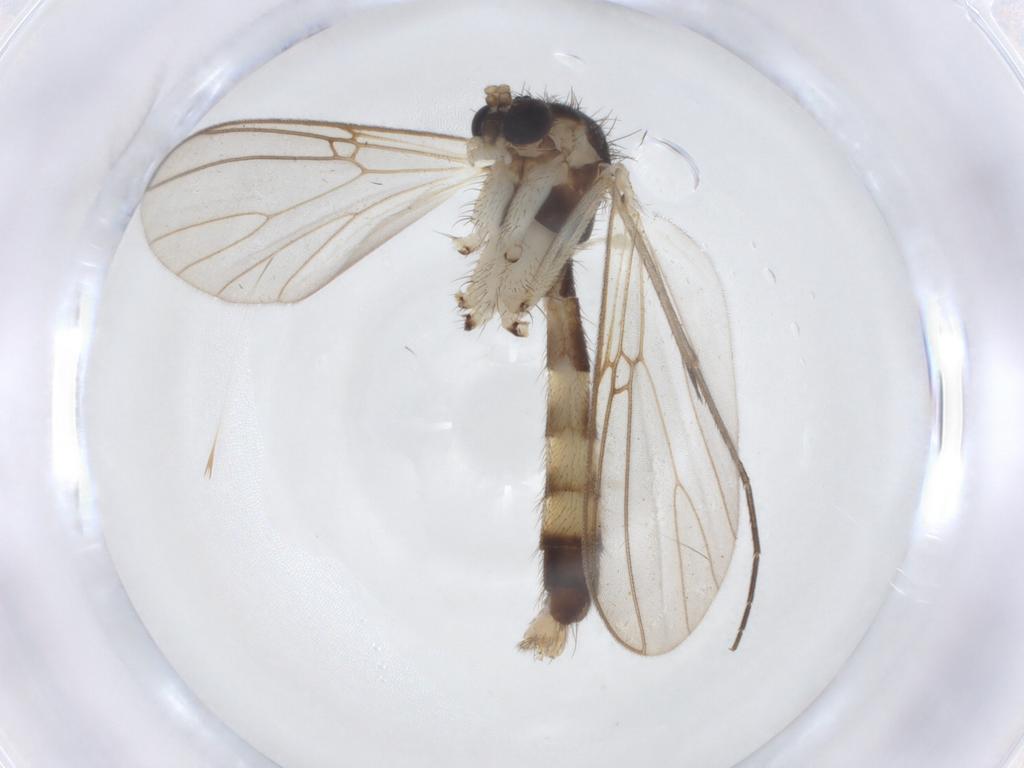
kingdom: Animalia
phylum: Arthropoda
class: Insecta
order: Diptera
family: Mycetophilidae
